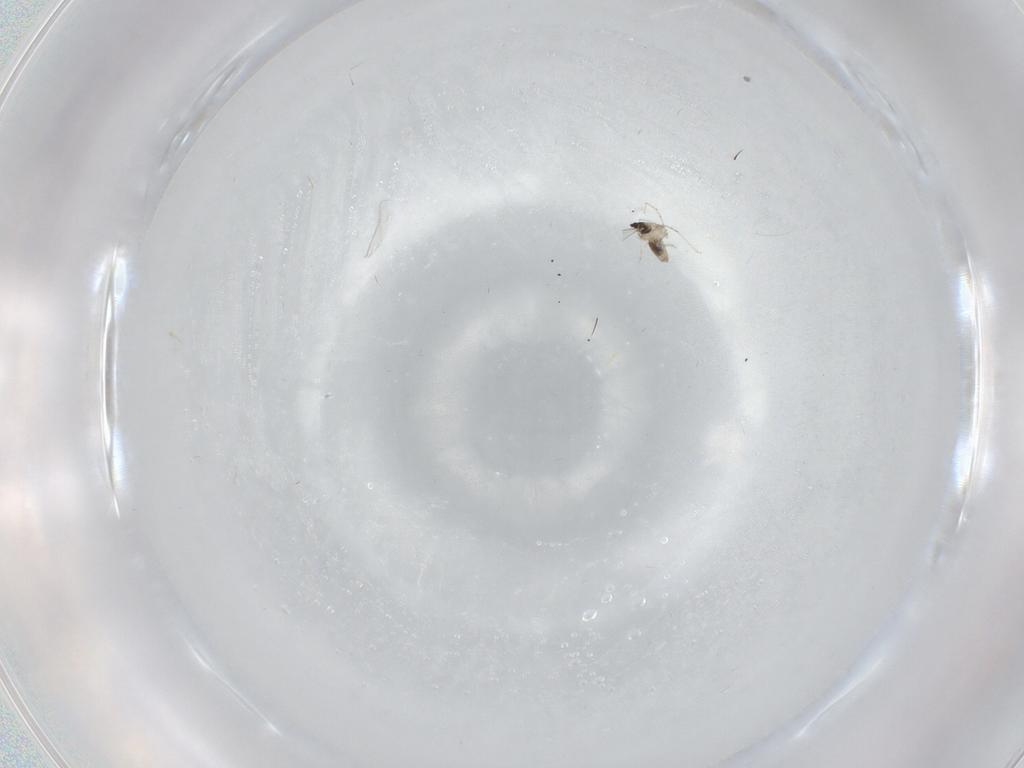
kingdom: Animalia
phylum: Arthropoda
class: Insecta
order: Diptera
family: Cecidomyiidae
